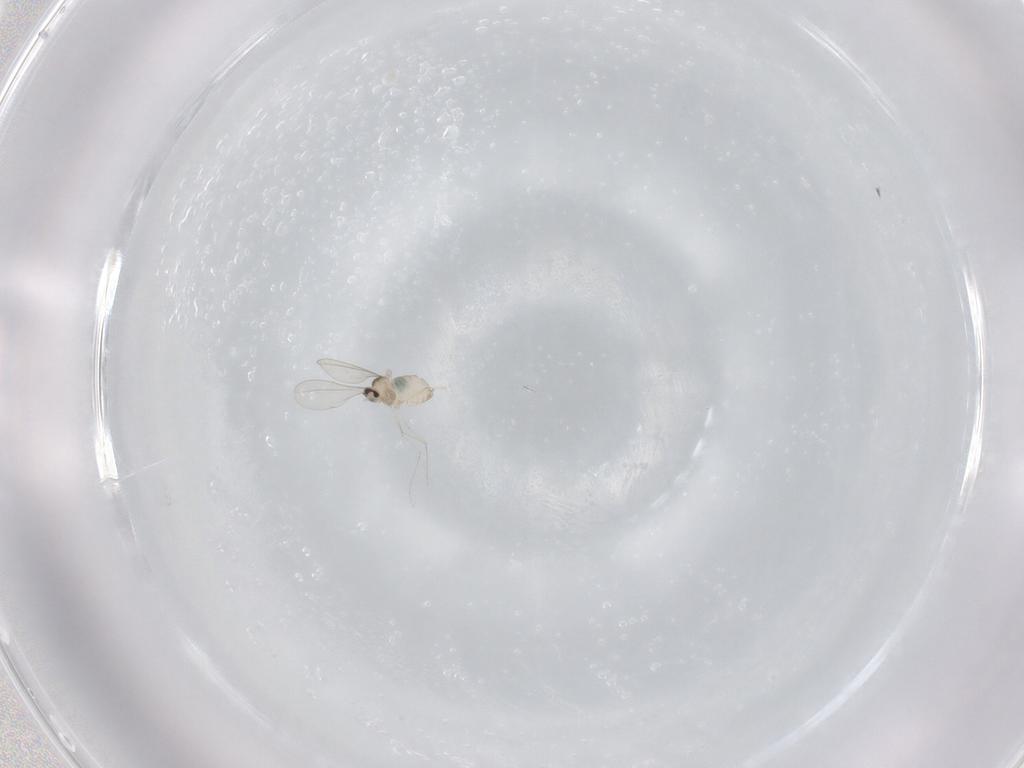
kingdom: Animalia
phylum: Arthropoda
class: Insecta
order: Diptera
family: Cecidomyiidae
